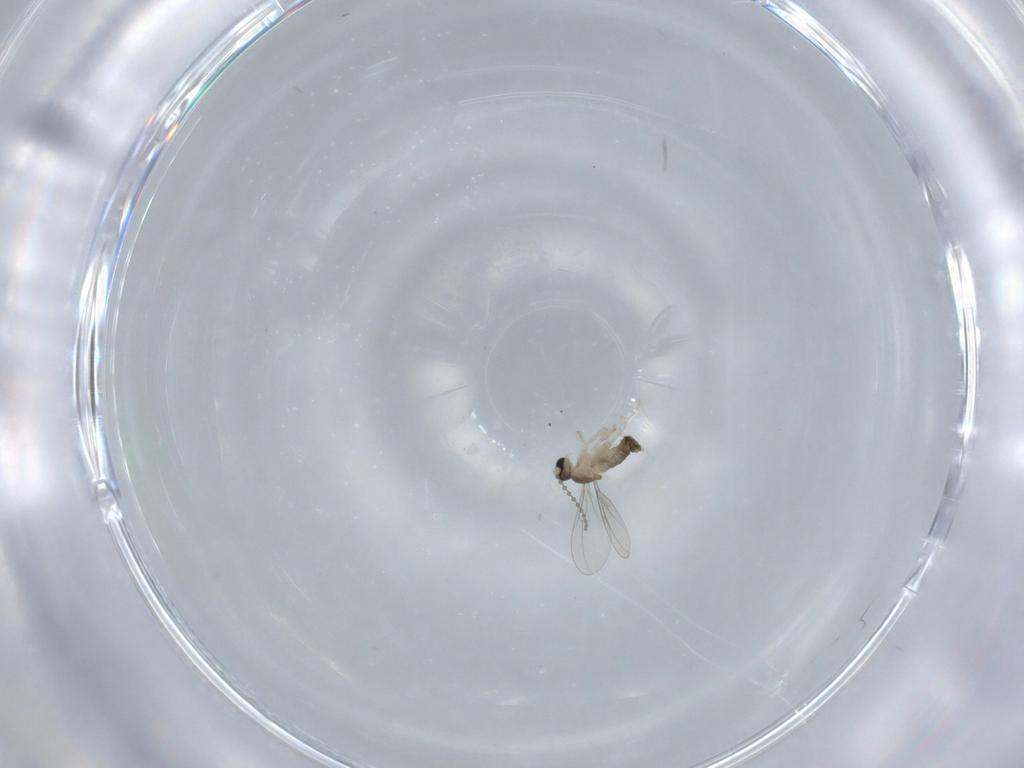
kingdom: Animalia
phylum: Arthropoda
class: Insecta
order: Diptera
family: Cecidomyiidae
